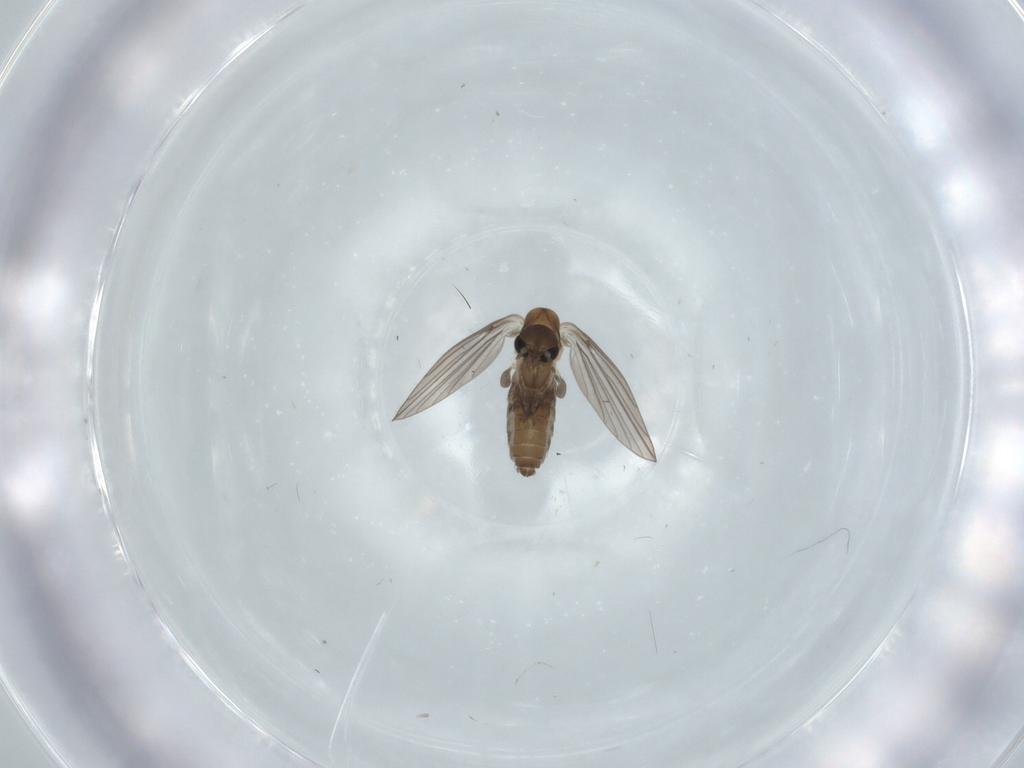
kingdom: Animalia
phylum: Arthropoda
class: Insecta
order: Diptera
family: Psychodidae
